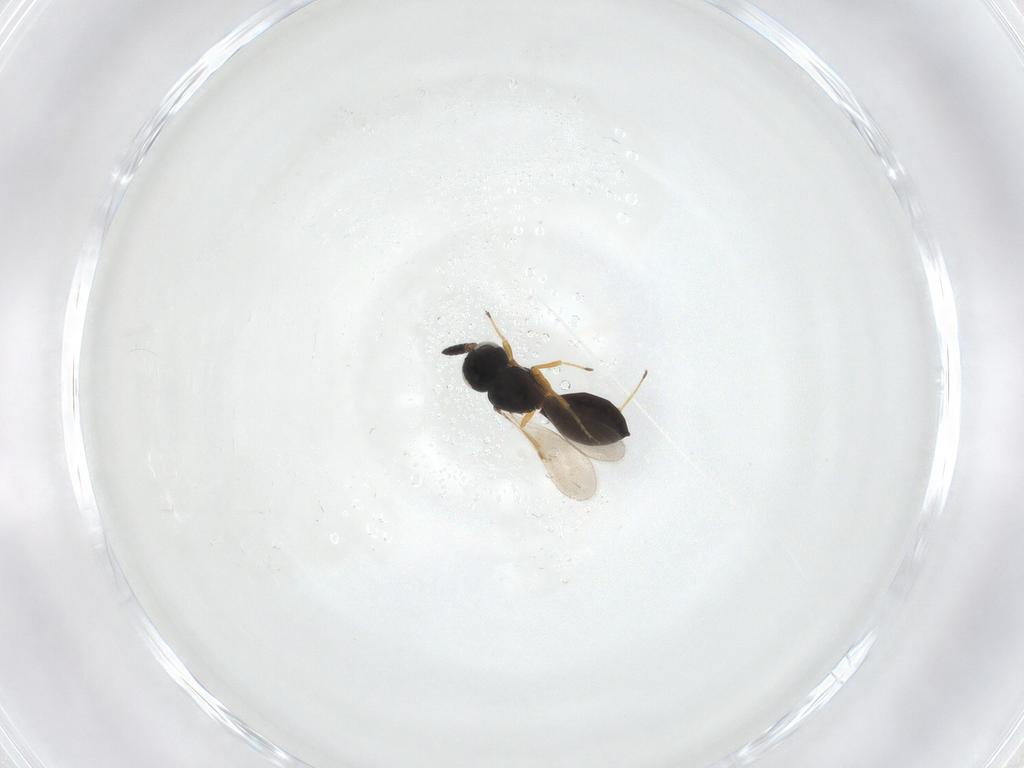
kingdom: Animalia
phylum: Arthropoda
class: Insecta
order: Hymenoptera
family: Scelionidae
